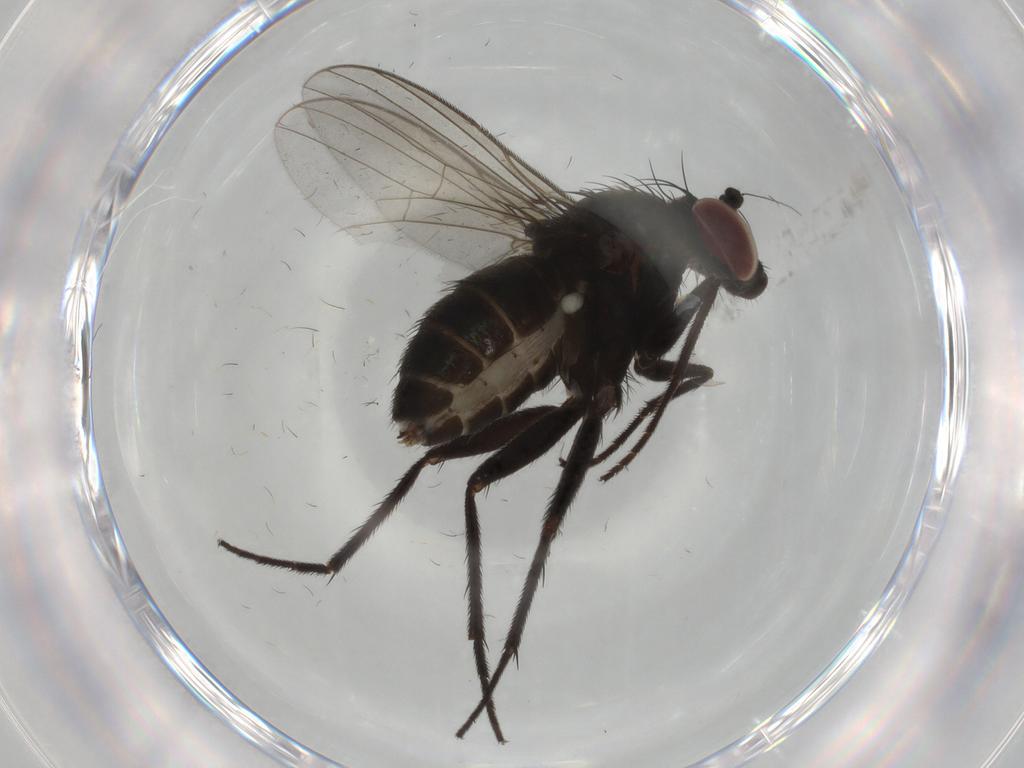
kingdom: Animalia
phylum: Arthropoda
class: Insecta
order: Diptera
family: Dolichopodidae
